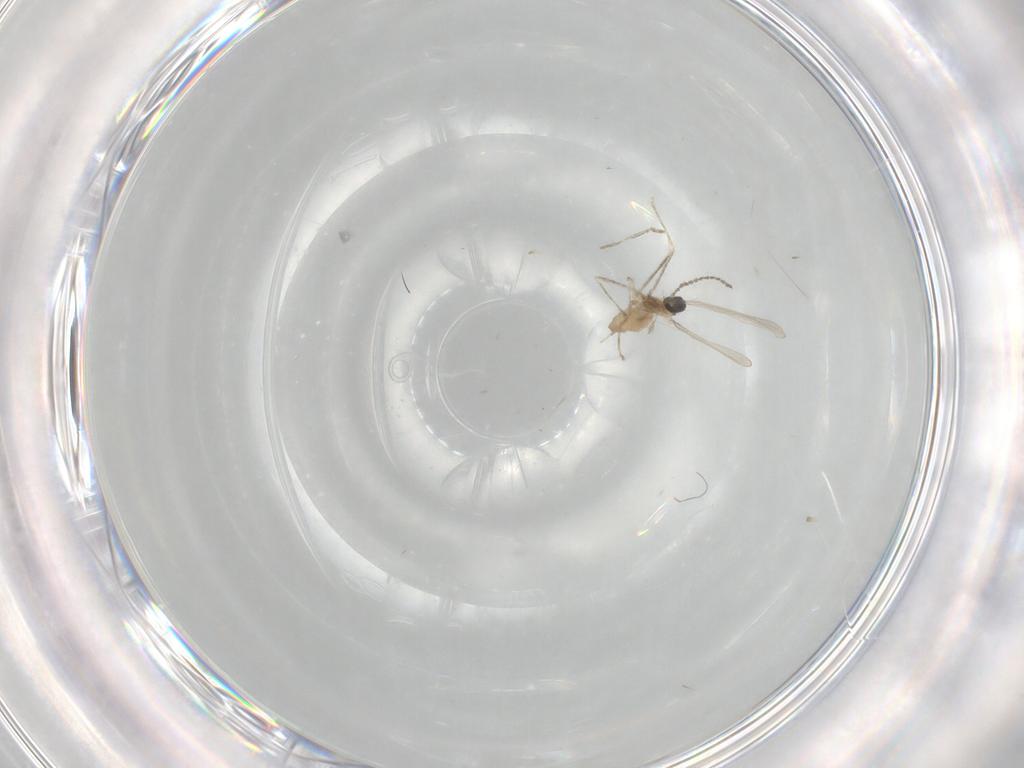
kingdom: Animalia
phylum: Arthropoda
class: Insecta
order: Diptera
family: Cecidomyiidae
